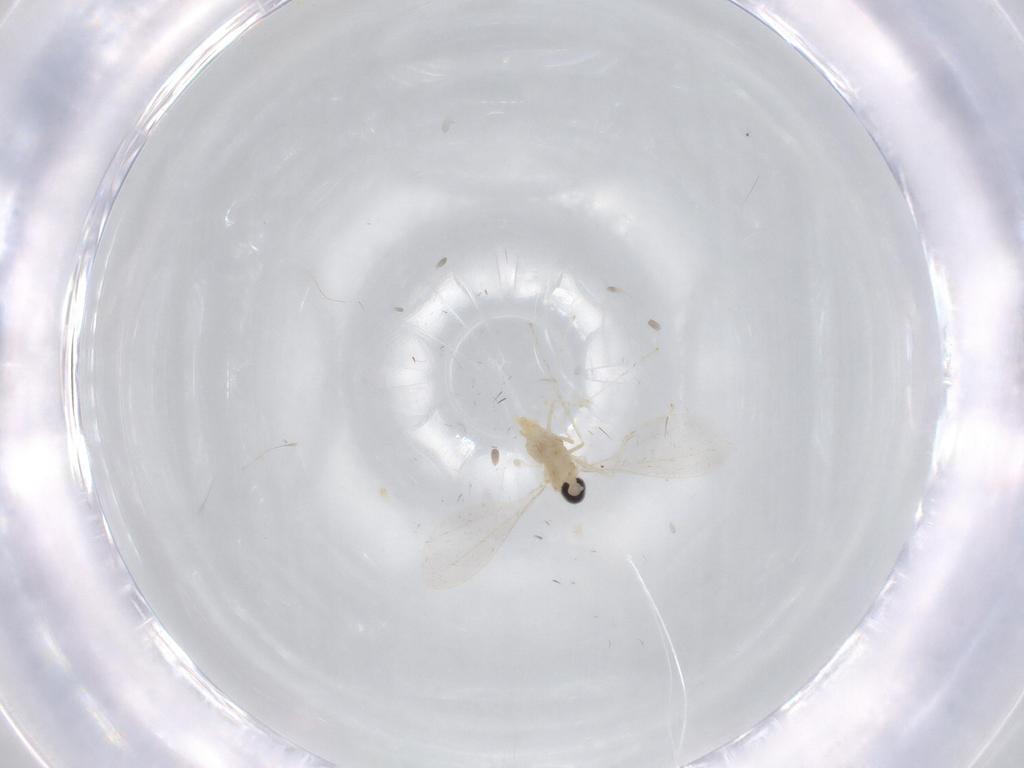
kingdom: Animalia
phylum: Arthropoda
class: Insecta
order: Diptera
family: Cecidomyiidae
